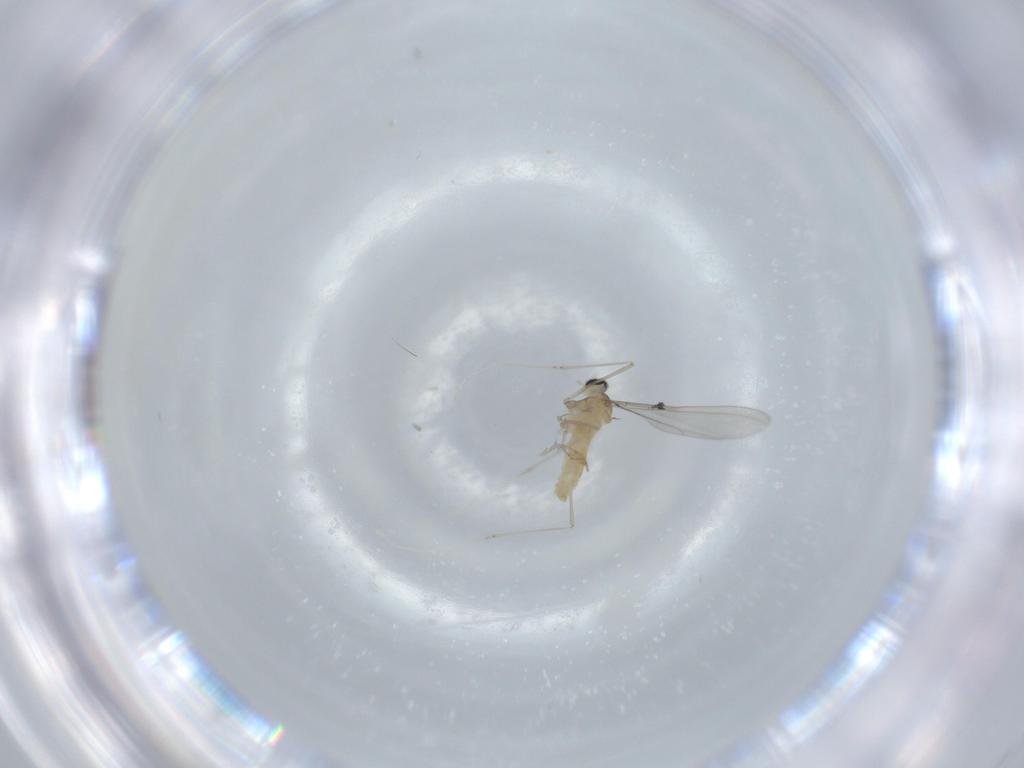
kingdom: Animalia
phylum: Arthropoda
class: Insecta
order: Diptera
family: Cecidomyiidae
